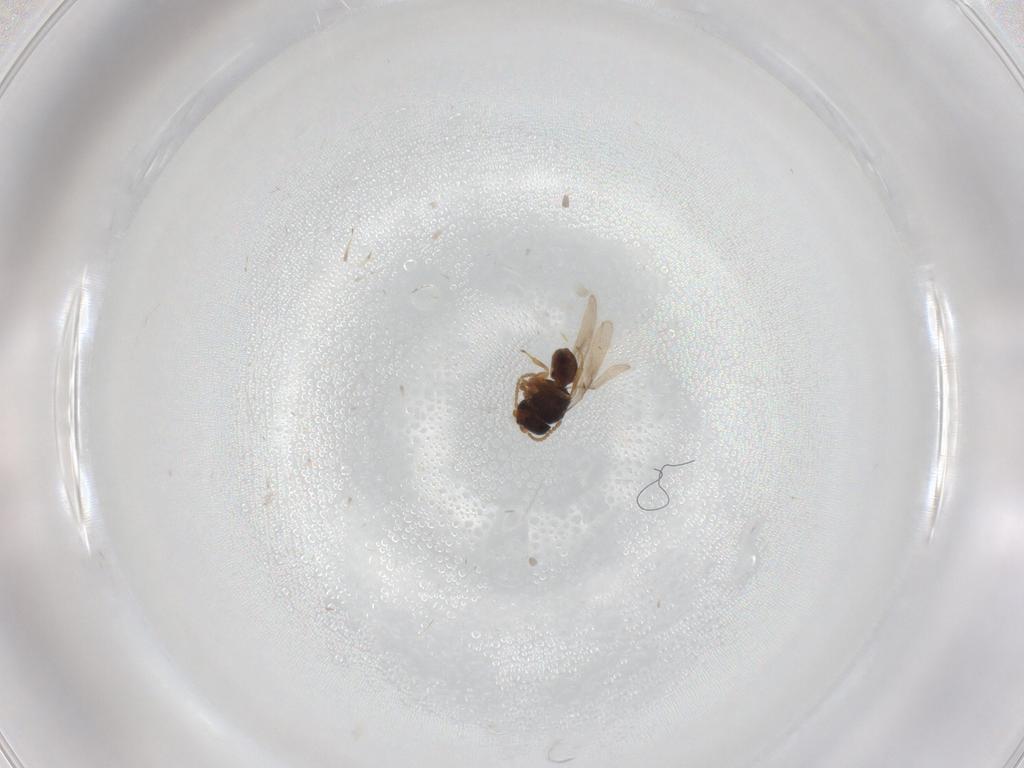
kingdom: Animalia
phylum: Arthropoda
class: Insecta
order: Hymenoptera
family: Scelionidae
